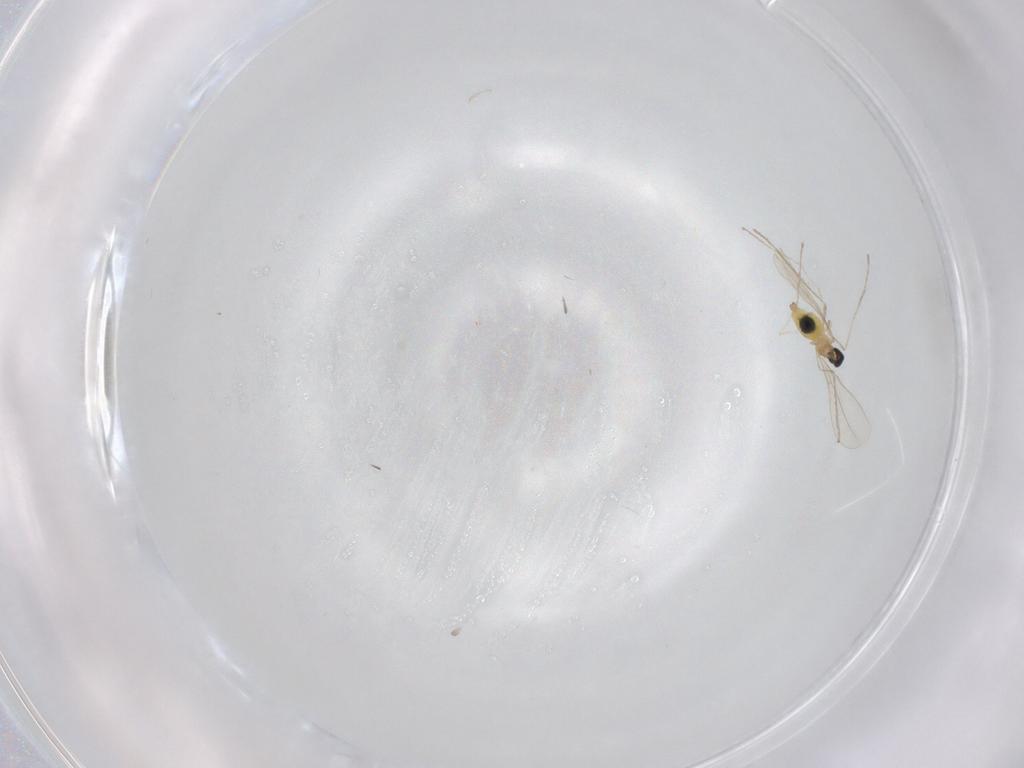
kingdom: Animalia
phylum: Arthropoda
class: Insecta
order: Diptera
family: Cecidomyiidae
